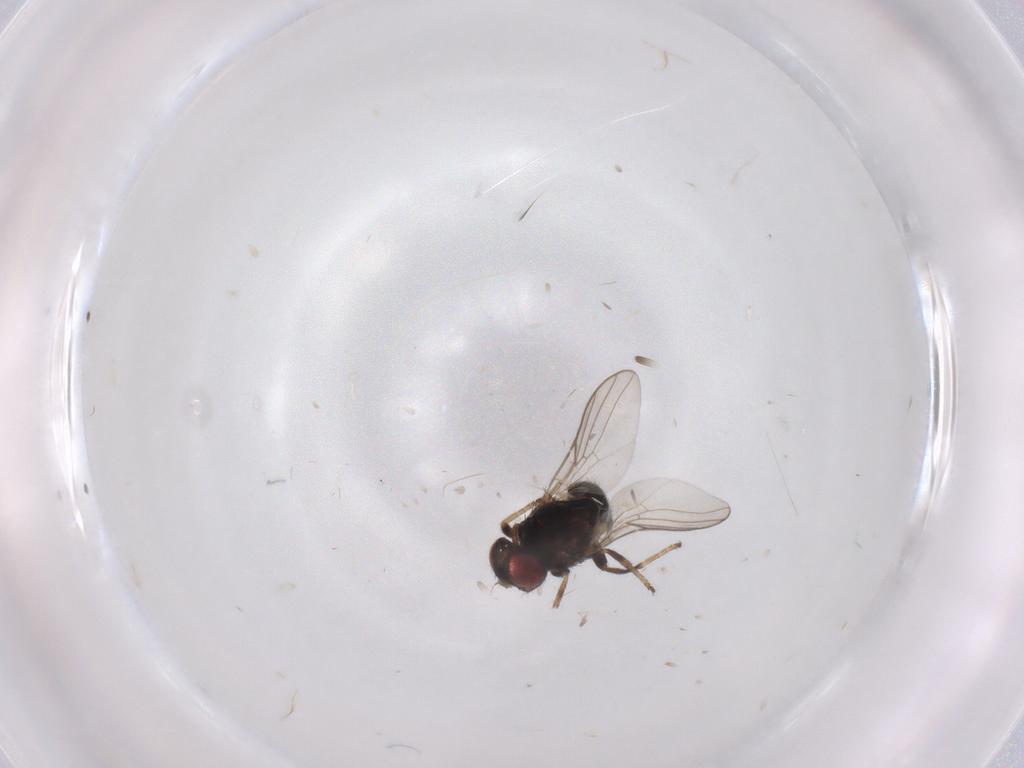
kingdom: Animalia
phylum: Arthropoda
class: Insecta
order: Diptera
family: Chloropidae
